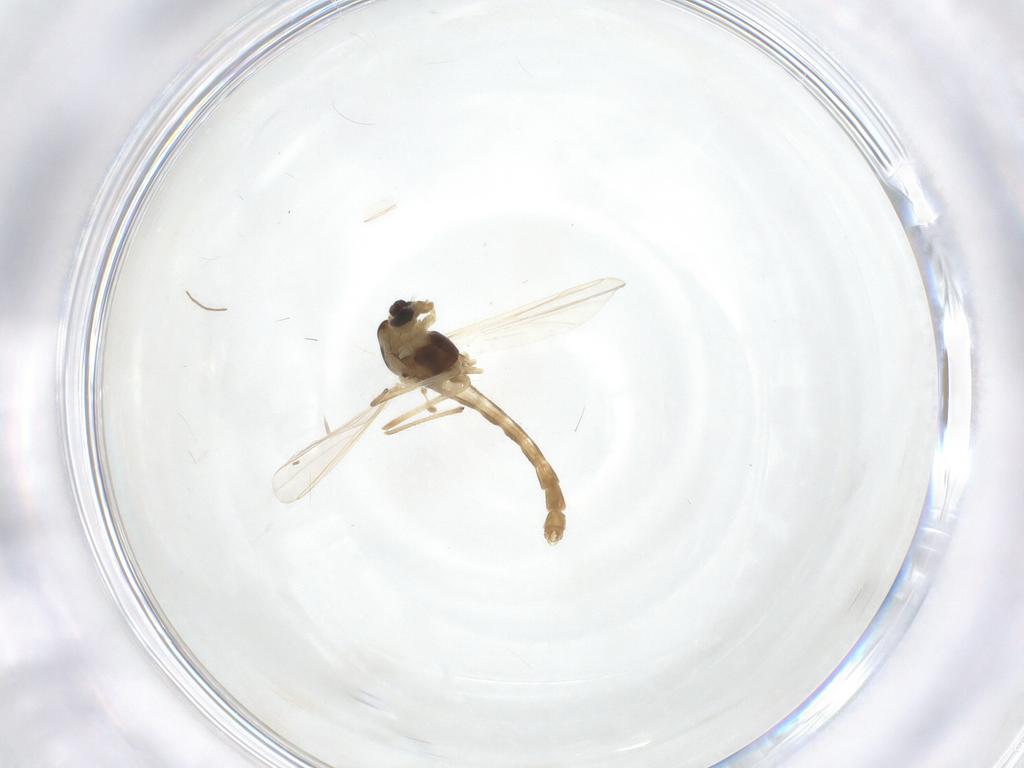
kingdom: Animalia
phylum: Arthropoda
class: Insecta
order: Diptera
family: Chironomidae
